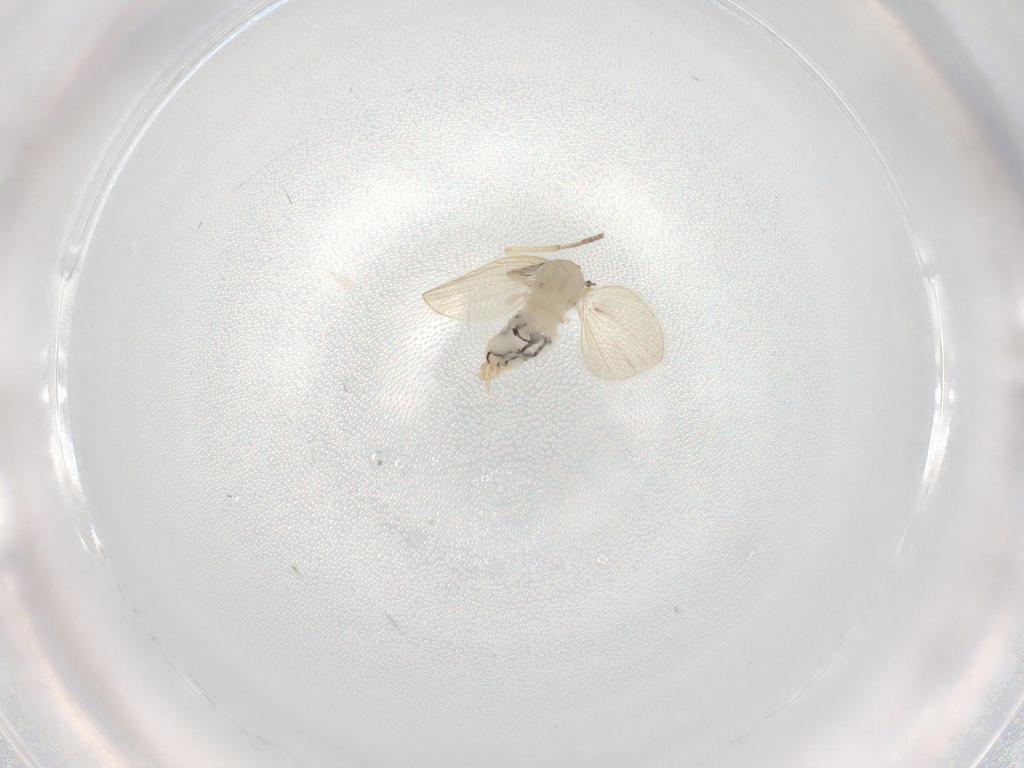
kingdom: Animalia
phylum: Arthropoda
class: Insecta
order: Diptera
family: Psychodidae
